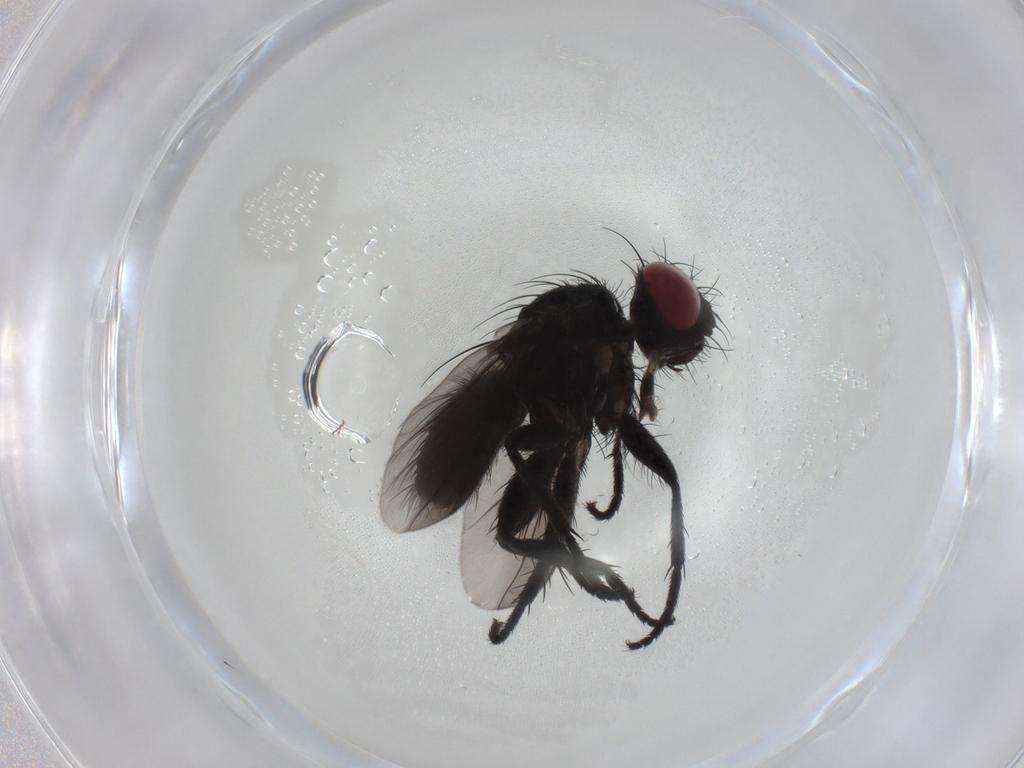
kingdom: Animalia
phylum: Arthropoda
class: Insecta
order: Diptera
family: Tachinidae
